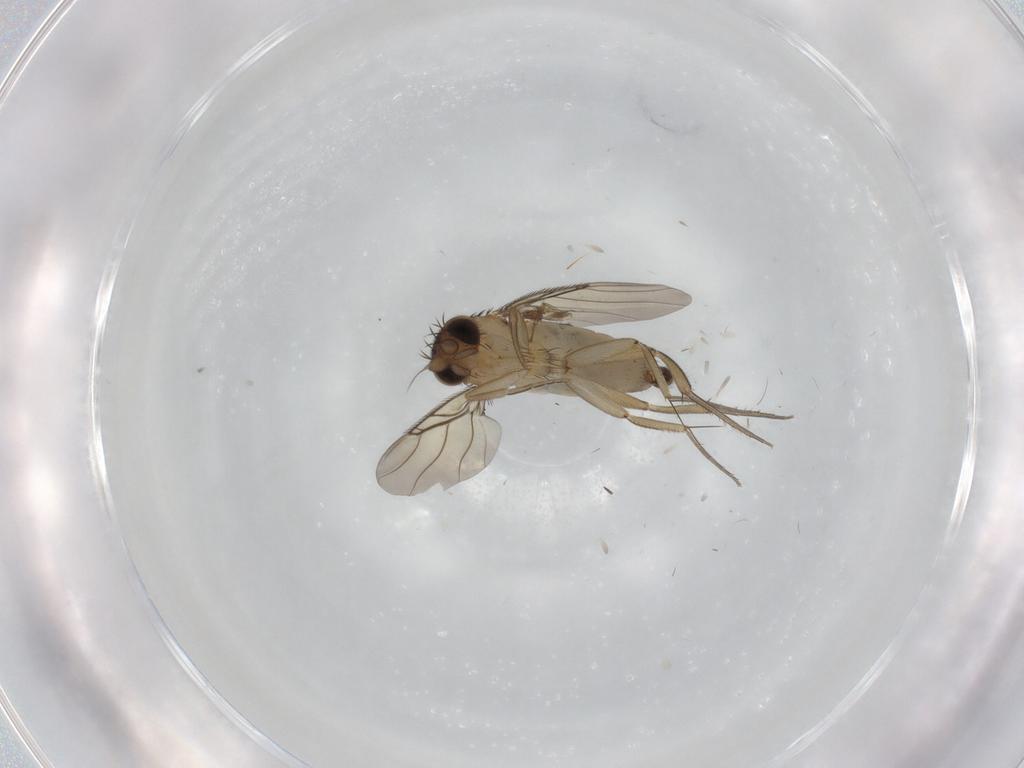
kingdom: Animalia
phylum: Arthropoda
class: Insecta
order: Diptera
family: Phoridae
